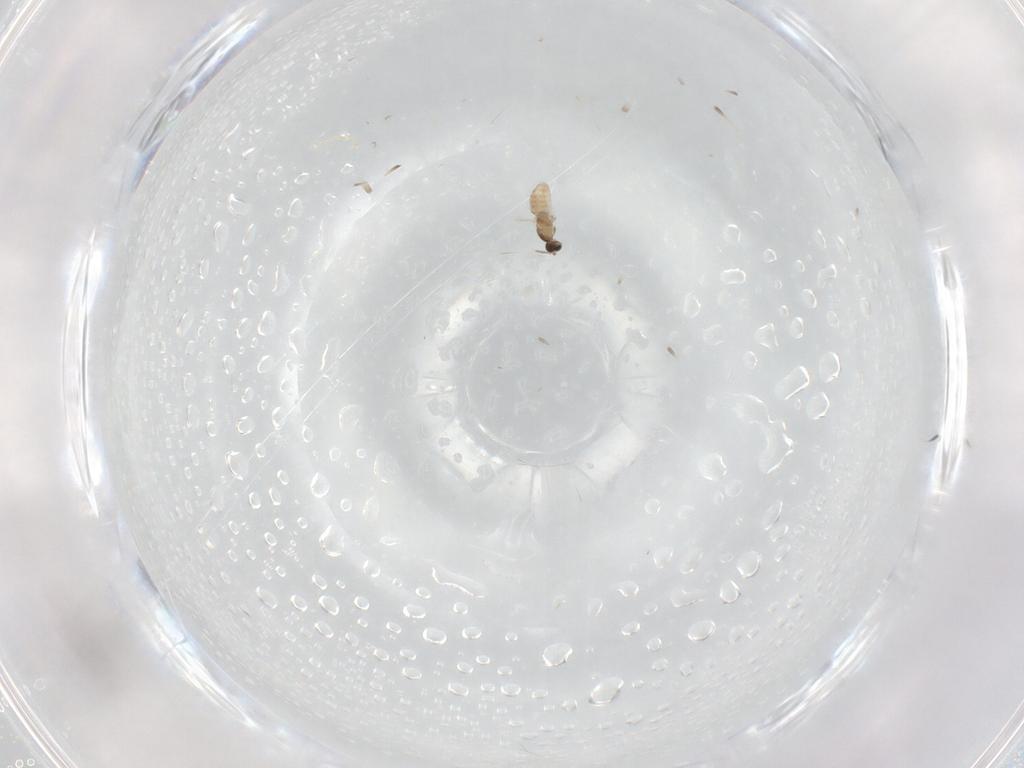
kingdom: Animalia
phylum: Arthropoda
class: Insecta
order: Diptera
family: Cecidomyiidae
